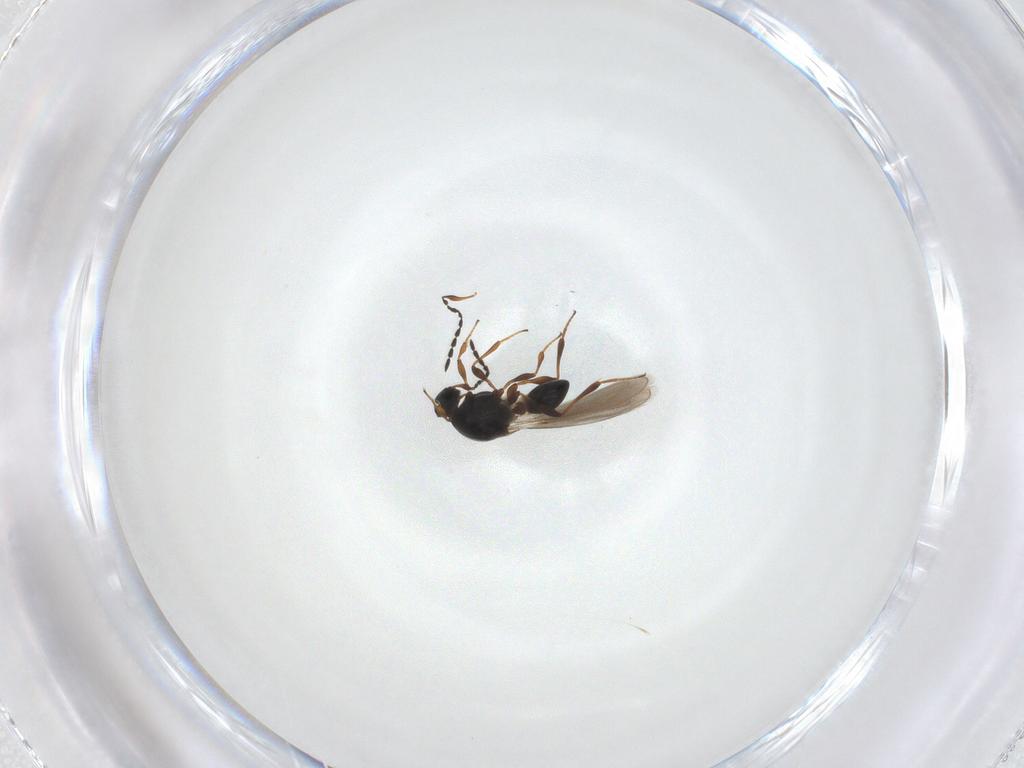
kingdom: Animalia
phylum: Arthropoda
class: Insecta
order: Hymenoptera
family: Platygastridae
